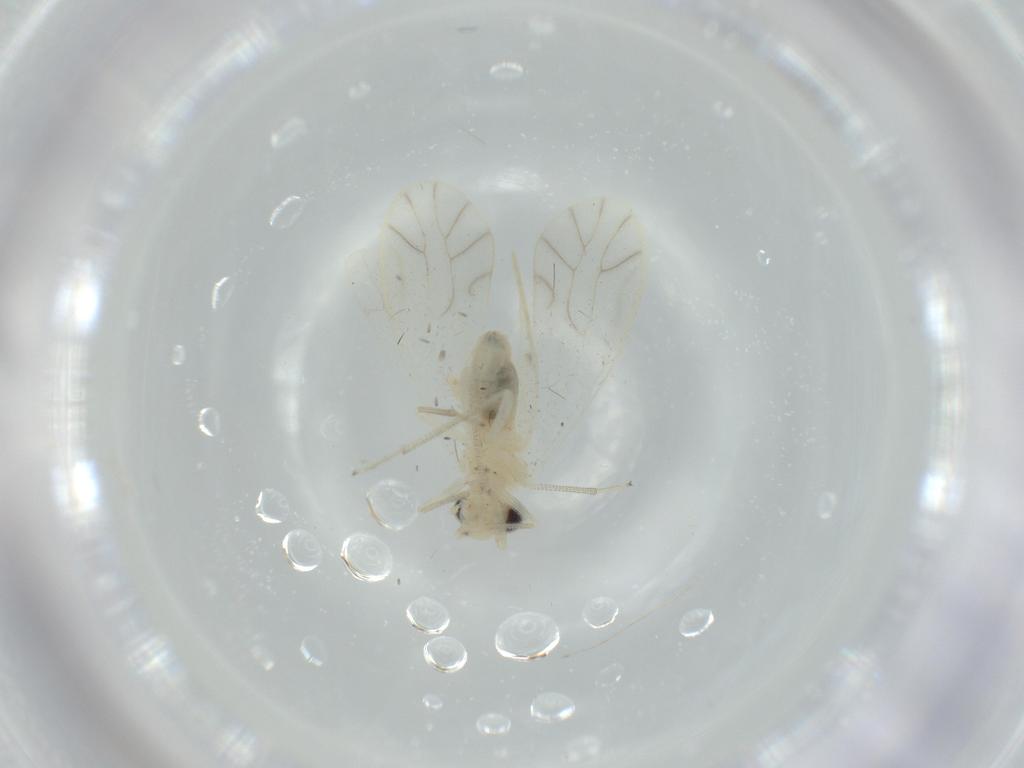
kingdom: Animalia
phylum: Arthropoda
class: Insecta
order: Psocodea
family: Caeciliusidae
